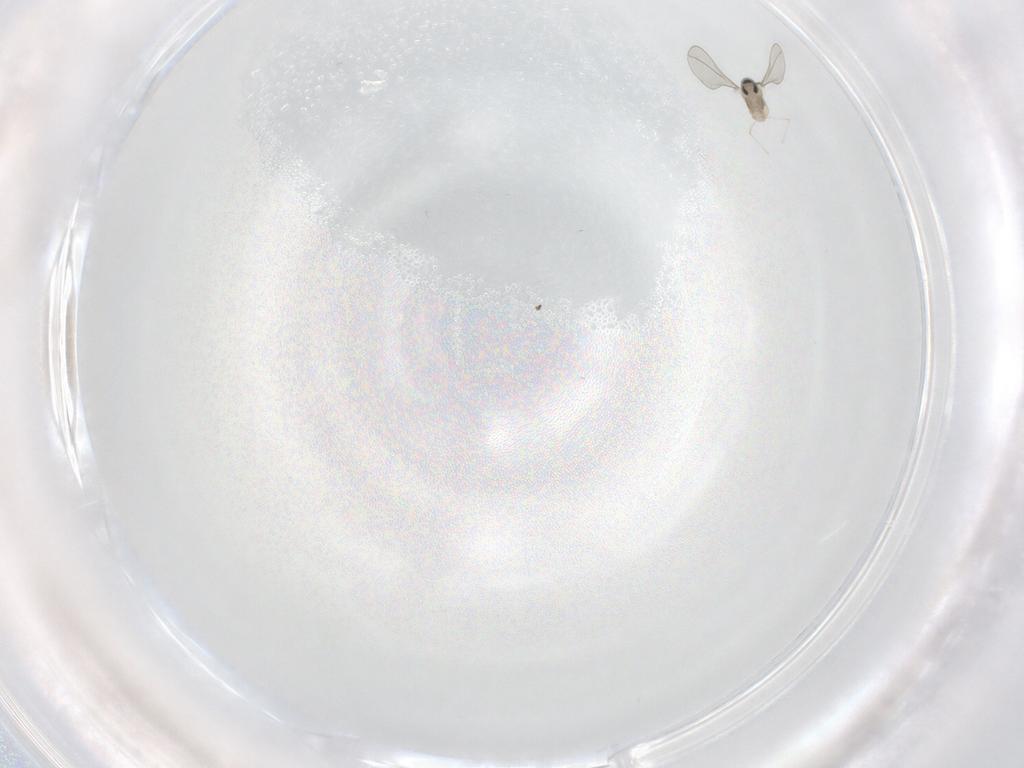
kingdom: Animalia
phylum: Arthropoda
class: Insecta
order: Diptera
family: Cecidomyiidae
